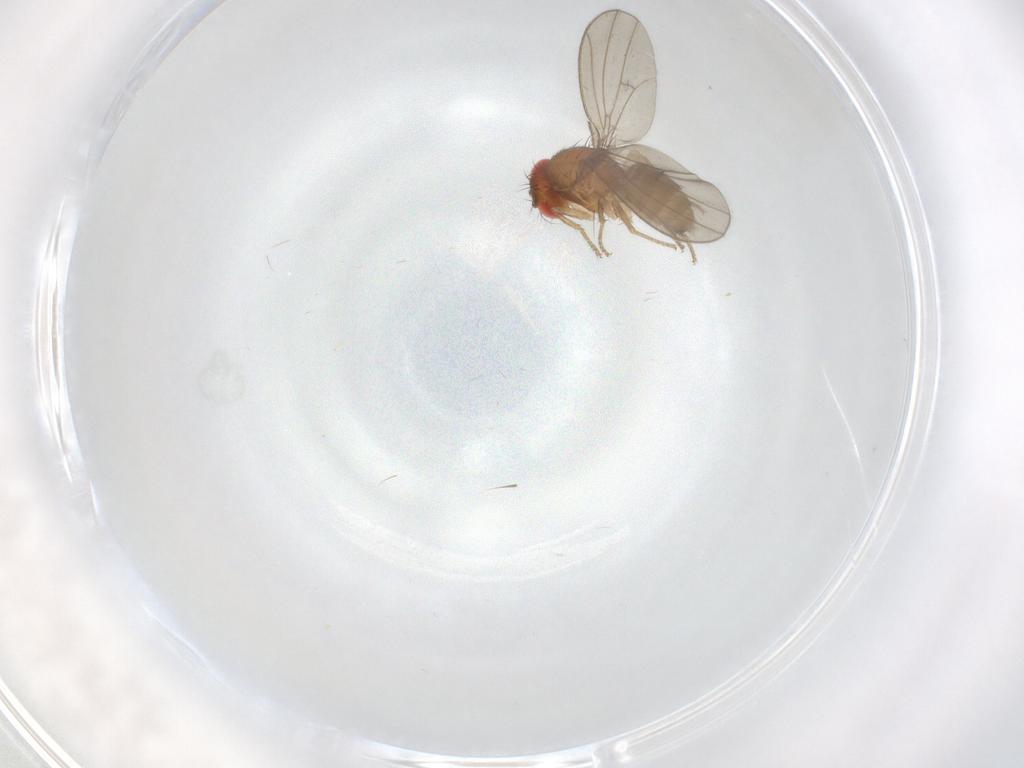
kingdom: Animalia
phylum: Arthropoda
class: Insecta
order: Diptera
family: Drosophilidae
